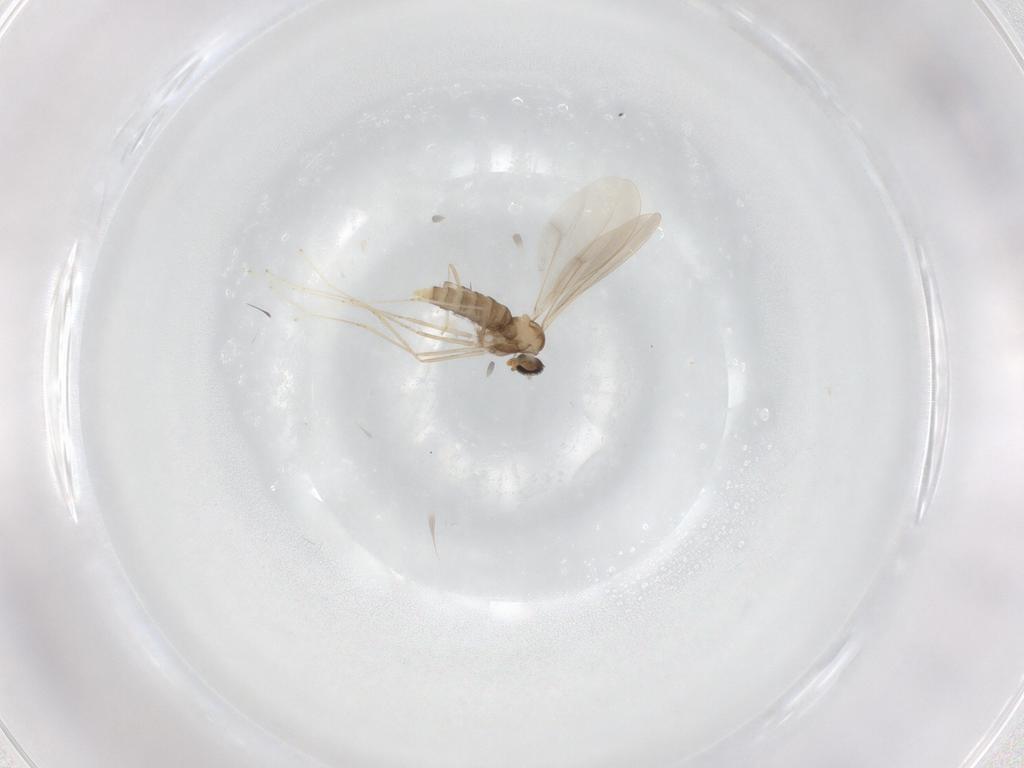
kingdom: Animalia
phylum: Arthropoda
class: Insecta
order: Diptera
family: Cecidomyiidae
